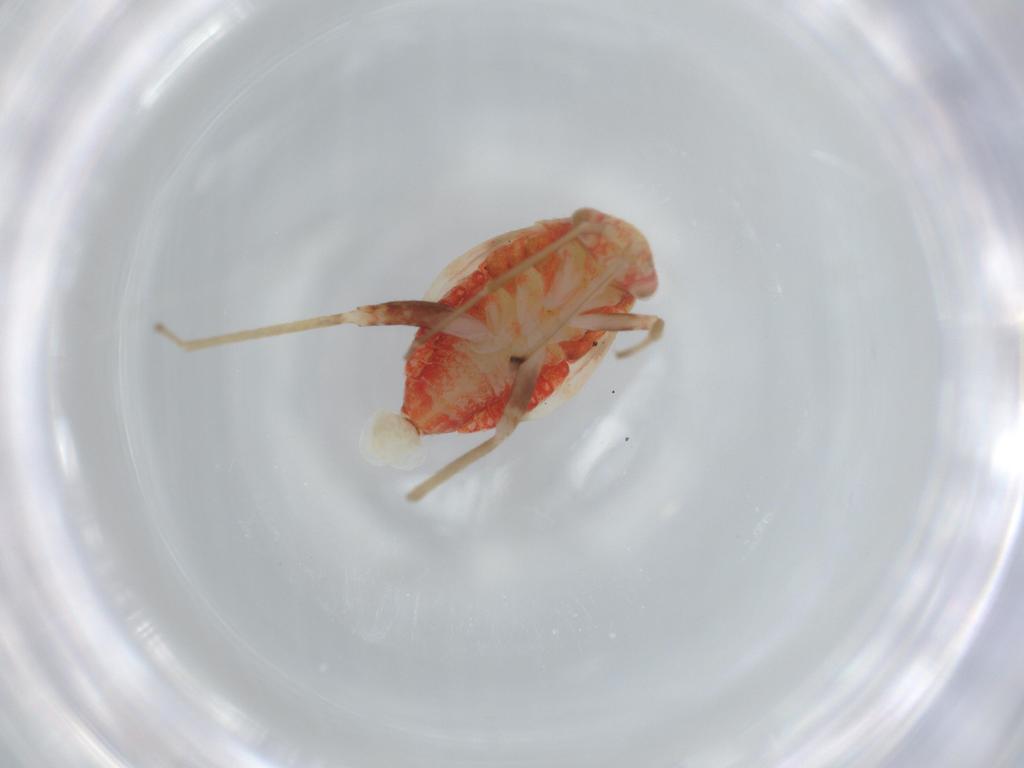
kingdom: Animalia
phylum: Arthropoda
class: Insecta
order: Hemiptera
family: Miridae
